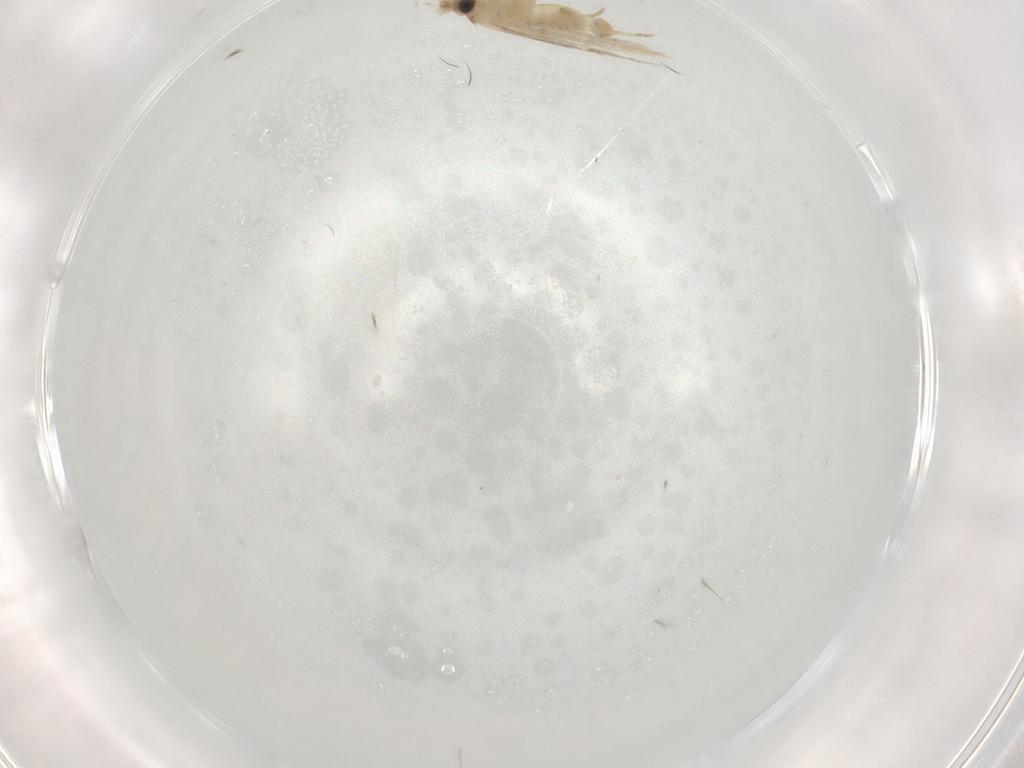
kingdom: Animalia
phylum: Arthropoda
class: Insecta
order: Lepidoptera
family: Nepticulidae
